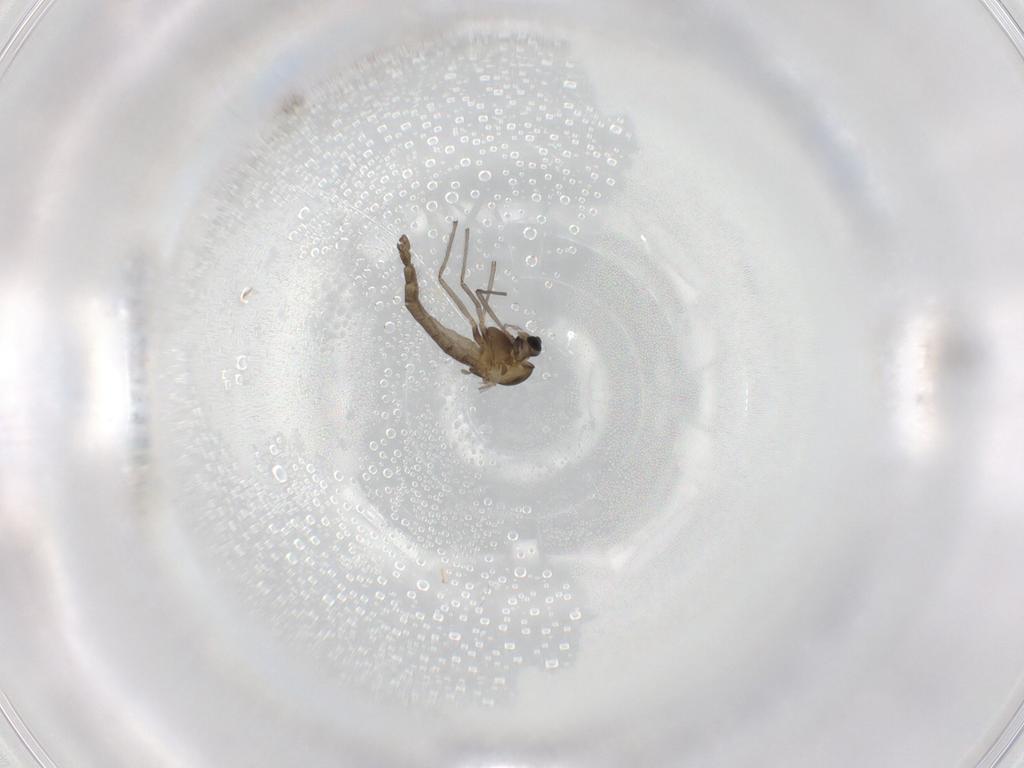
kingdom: Animalia
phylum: Arthropoda
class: Insecta
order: Diptera
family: Chironomidae
